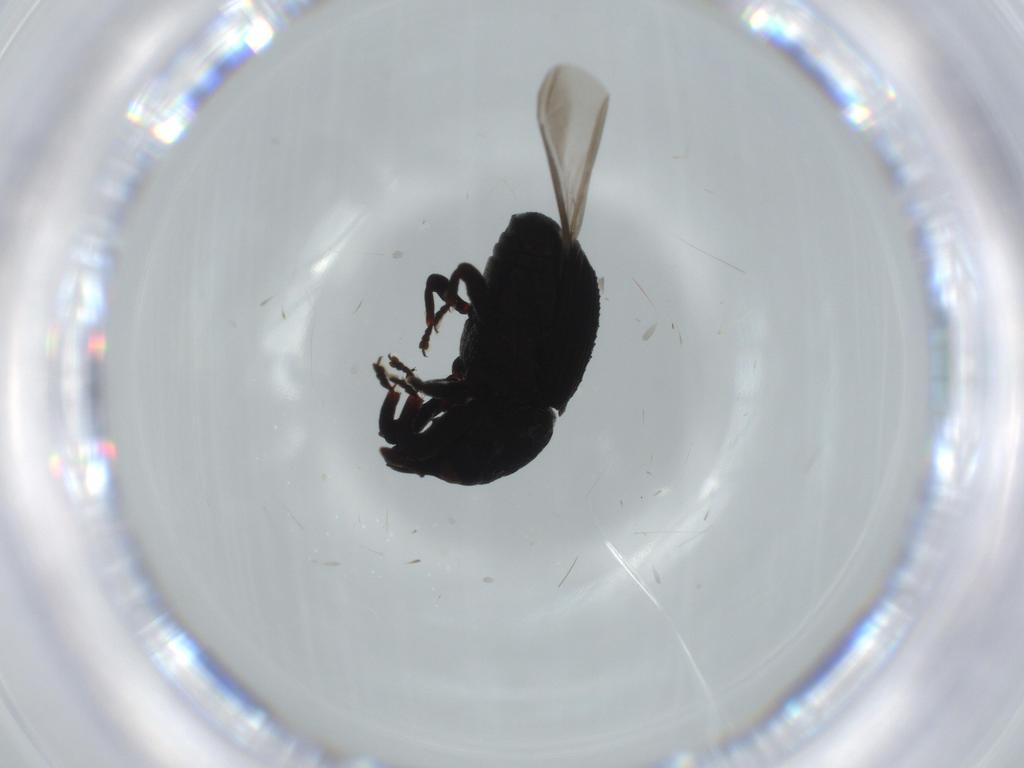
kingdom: Animalia
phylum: Arthropoda
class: Insecta
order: Coleoptera
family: Curculionidae
